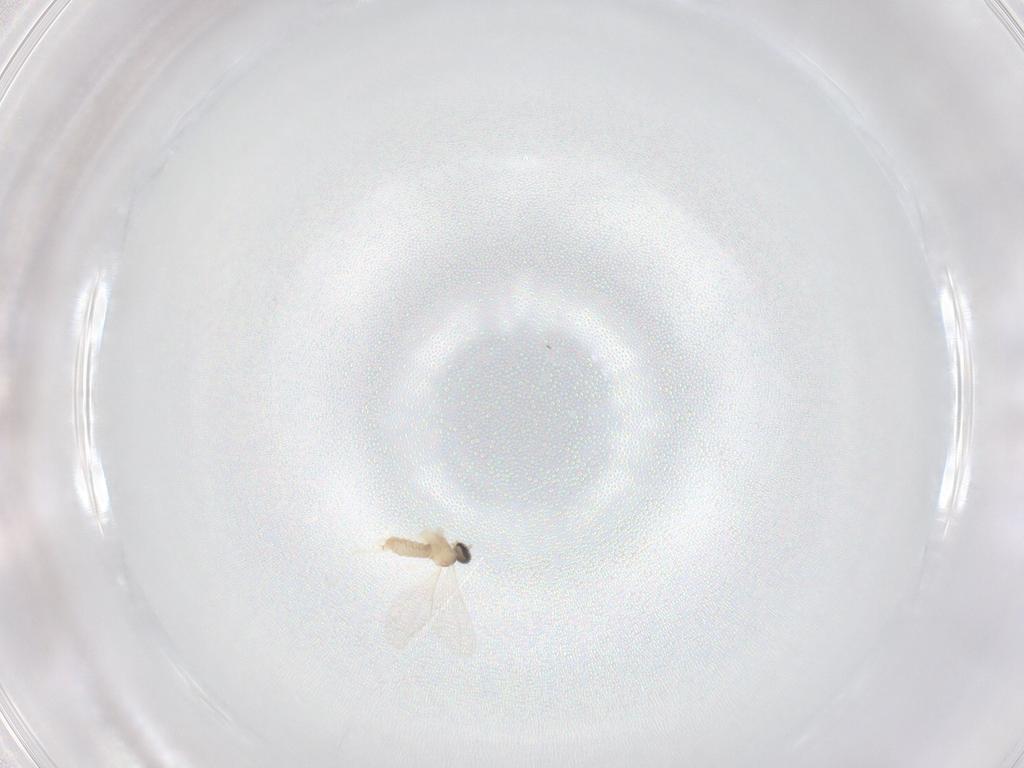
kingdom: Animalia
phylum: Arthropoda
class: Insecta
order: Diptera
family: Cecidomyiidae
